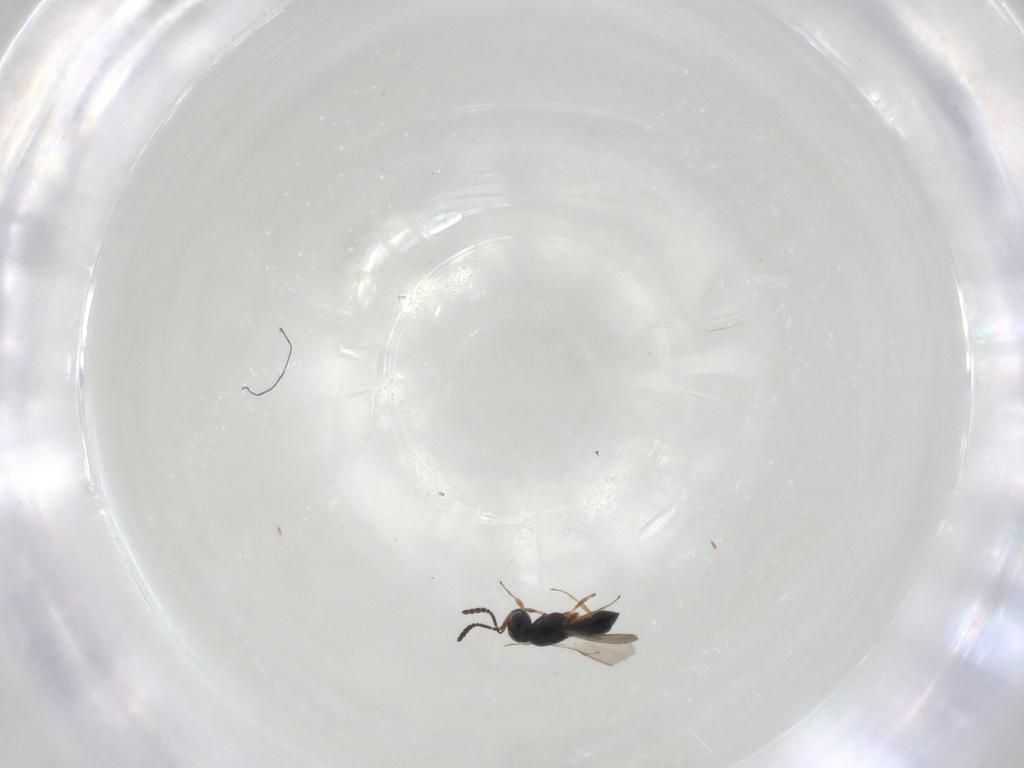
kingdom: Animalia
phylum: Arthropoda
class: Insecta
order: Hymenoptera
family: Scelionidae
